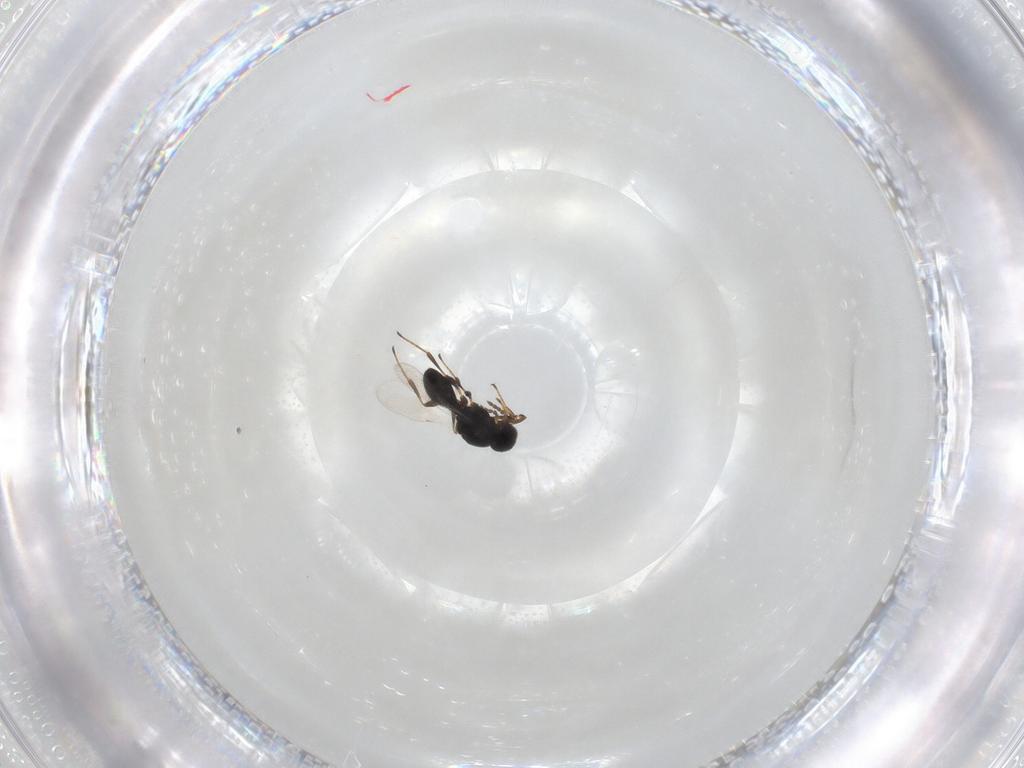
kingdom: Animalia
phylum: Arthropoda
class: Insecta
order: Hymenoptera
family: Platygastridae
